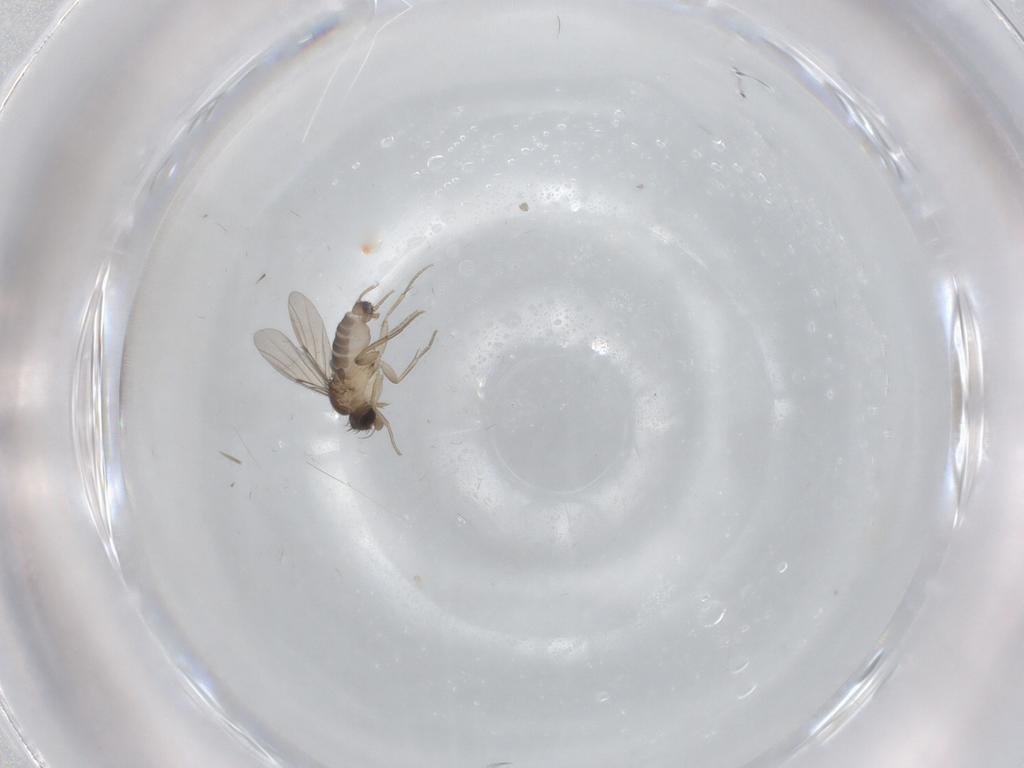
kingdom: Animalia
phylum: Arthropoda
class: Insecta
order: Diptera
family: Phoridae
